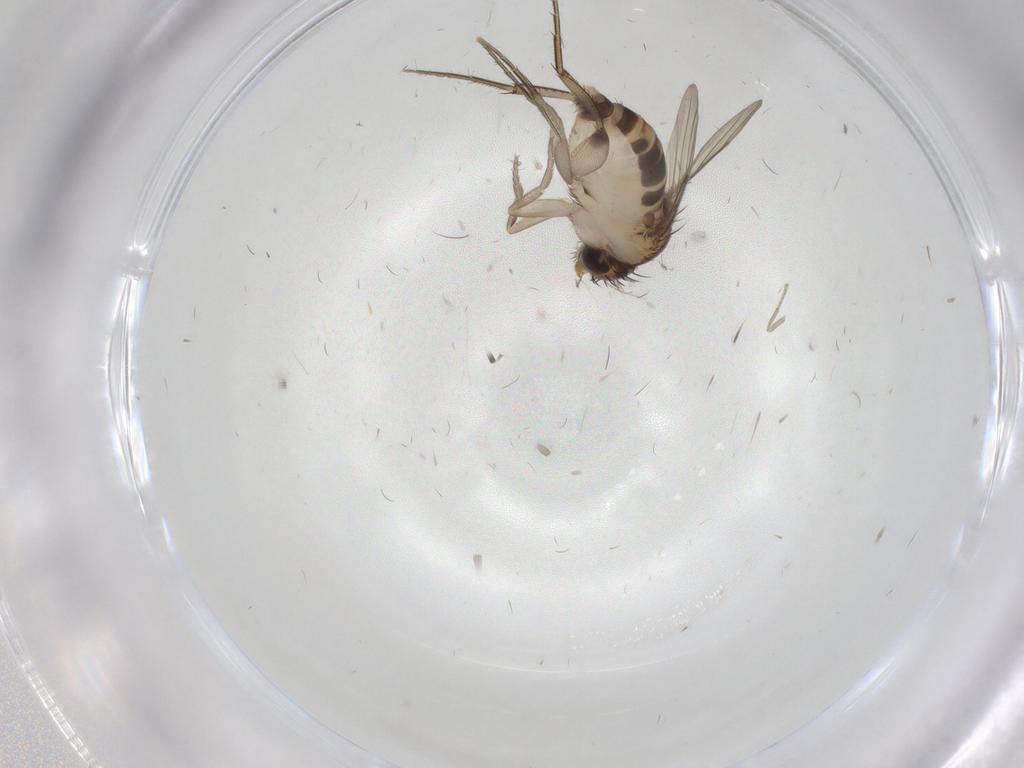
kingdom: Animalia
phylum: Arthropoda
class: Insecta
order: Diptera
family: Phoridae
